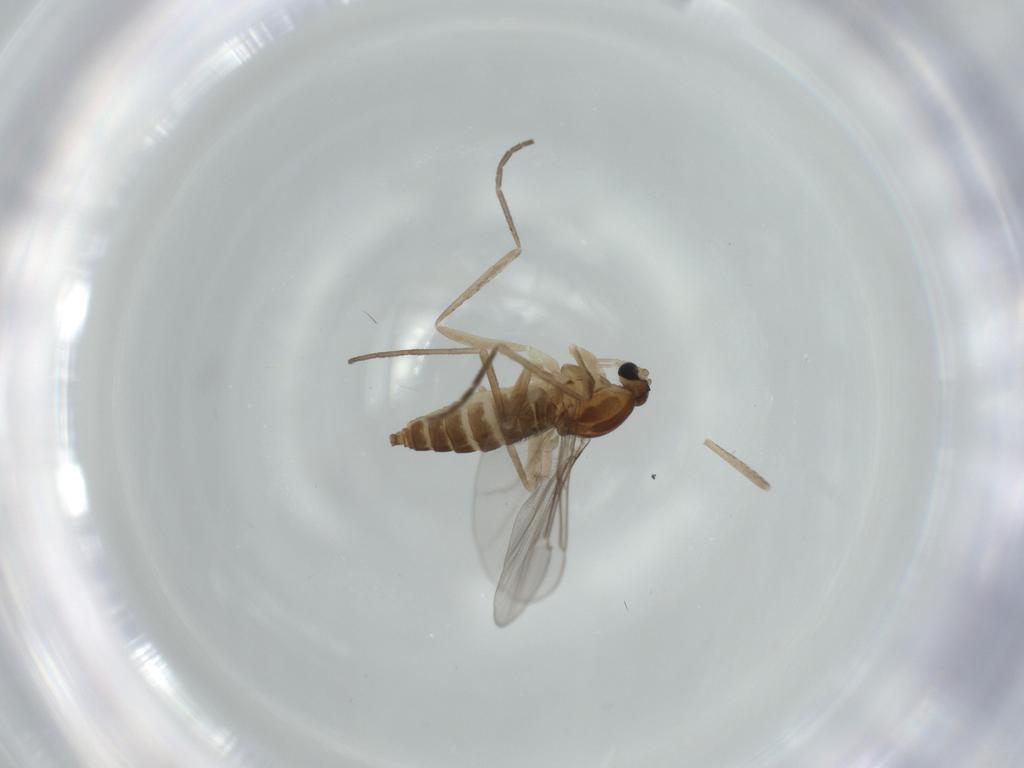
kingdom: Animalia
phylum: Arthropoda
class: Insecta
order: Diptera
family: Cecidomyiidae
